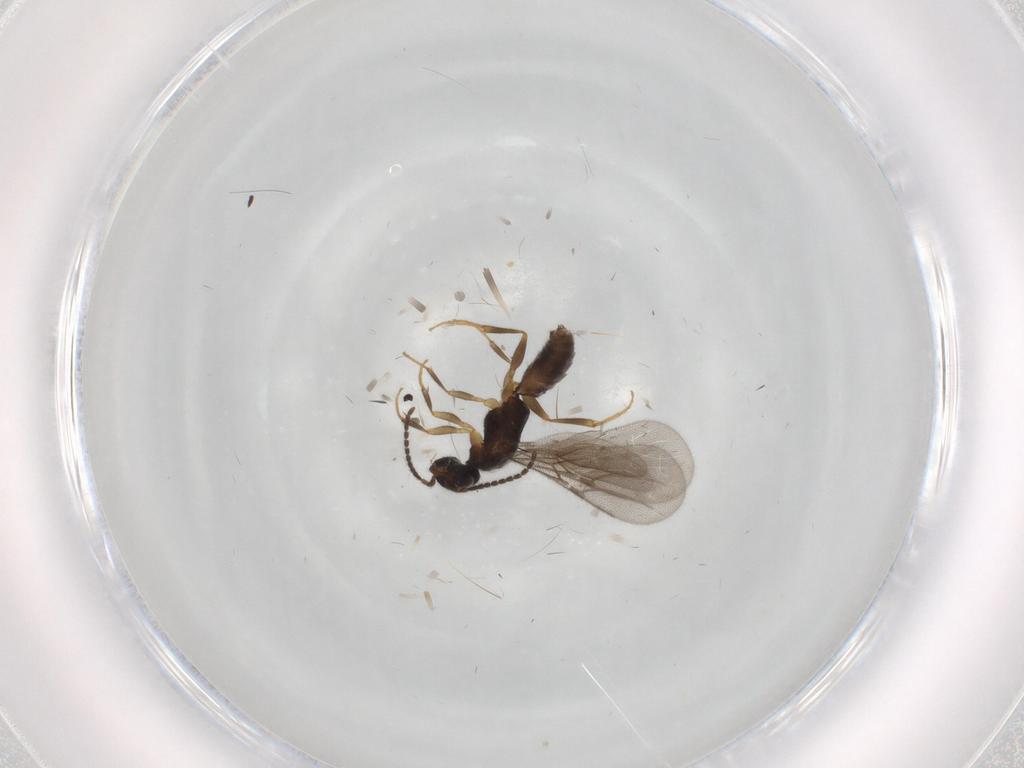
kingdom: Animalia
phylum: Arthropoda
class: Insecta
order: Hymenoptera
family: Bethylidae
